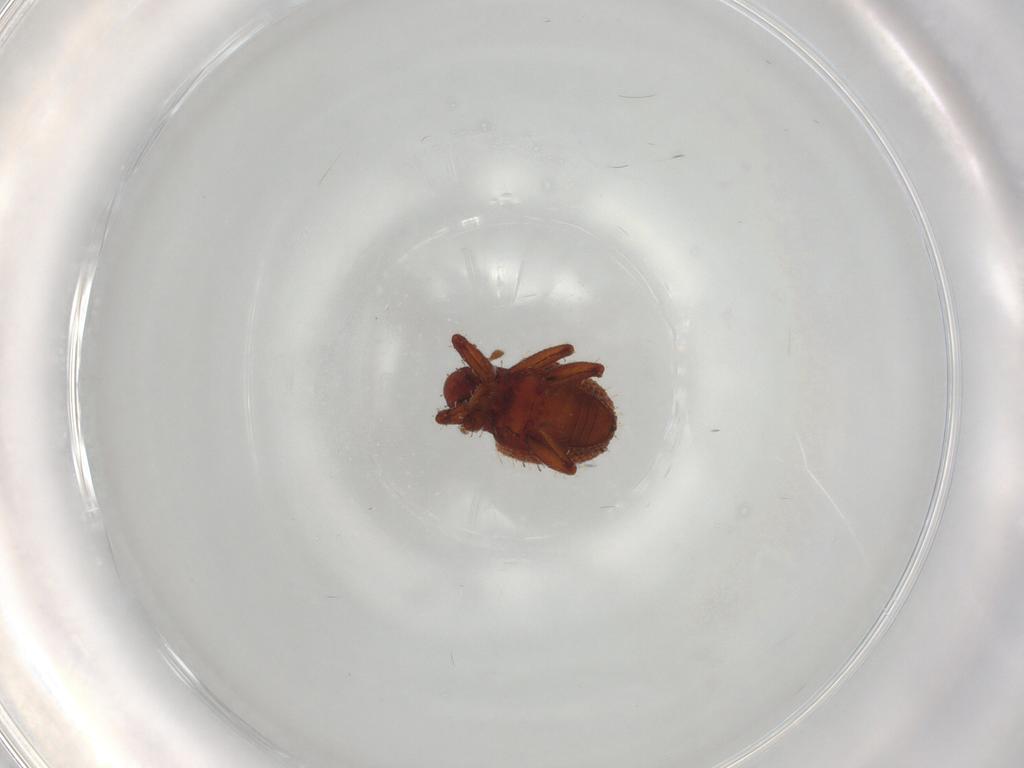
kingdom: Animalia
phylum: Arthropoda
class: Insecta
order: Coleoptera
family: Curculionidae
